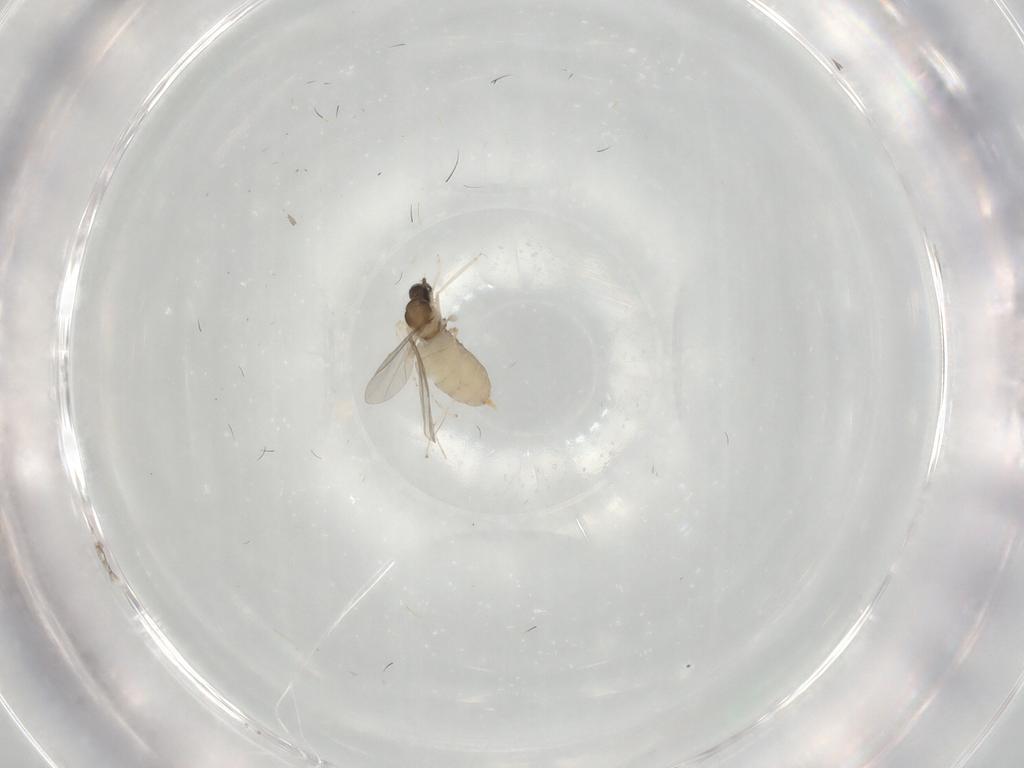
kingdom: Animalia
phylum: Arthropoda
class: Insecta
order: Diptera
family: Cecidomyiidae
